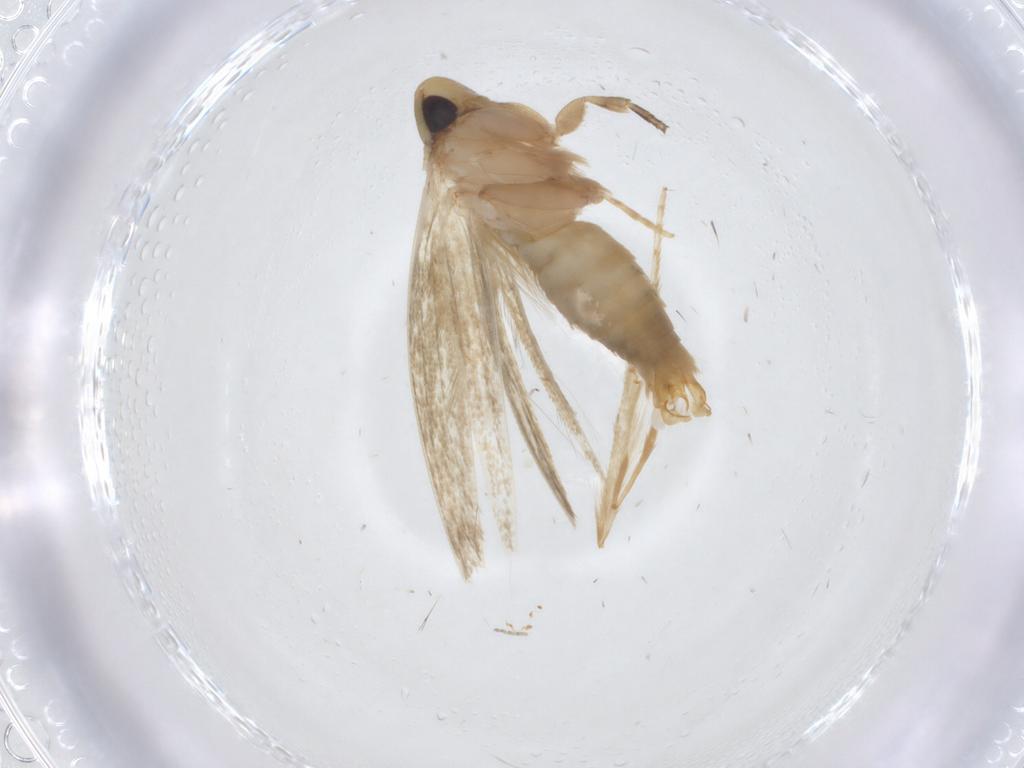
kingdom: Animalia
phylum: Arthropoda
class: Insecta
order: Lepidoptera
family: Tineidae
